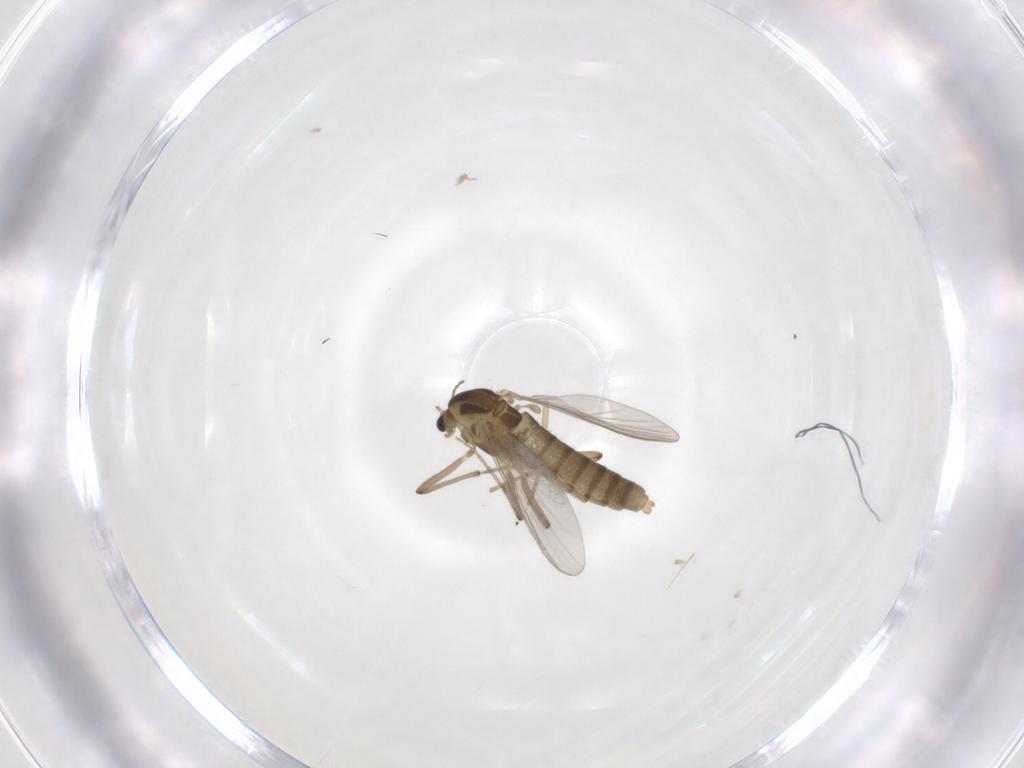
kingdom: Animalia
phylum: Arthropoda
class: Insecta
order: Diptera
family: Chironomidae
